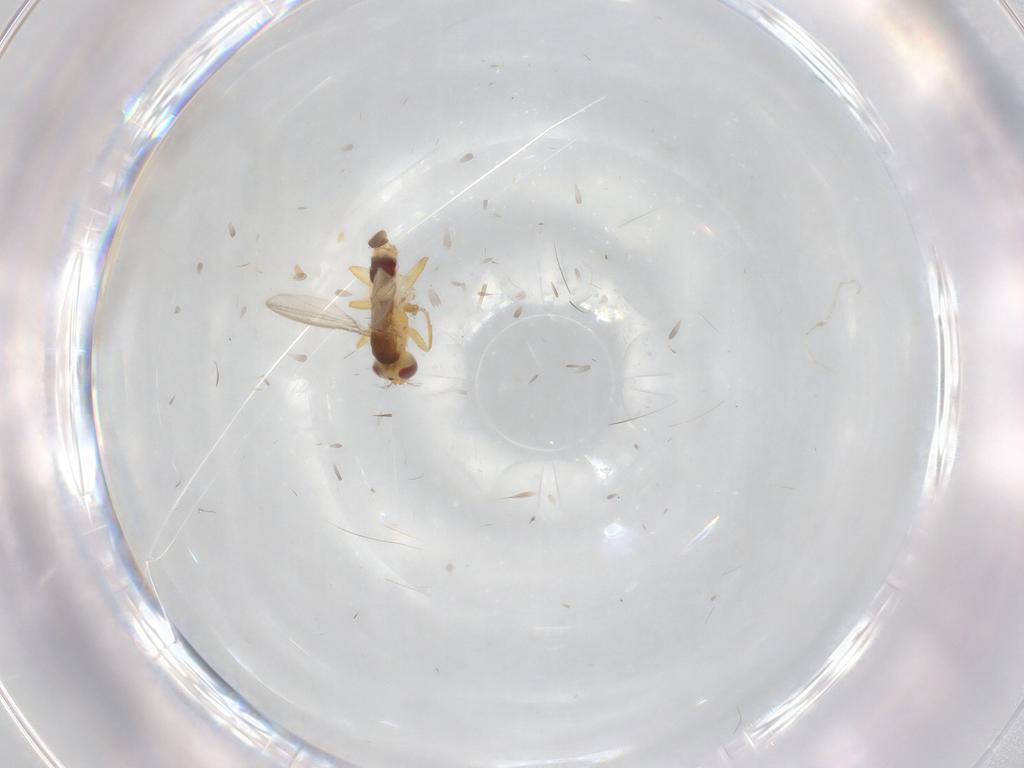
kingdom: Animalia
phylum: Arthropoda
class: Insecta
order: Diptera
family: Periscelididae
